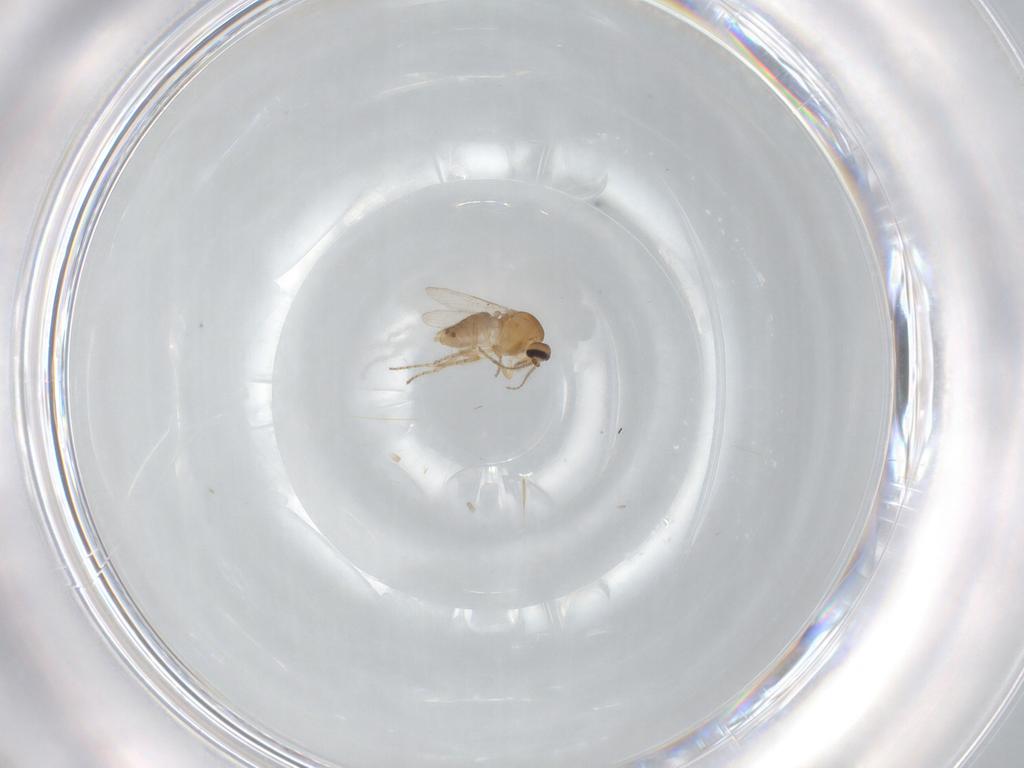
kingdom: Animalia
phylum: Arthropoda
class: Insecta
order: Diptera
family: Ceratopogonidae
